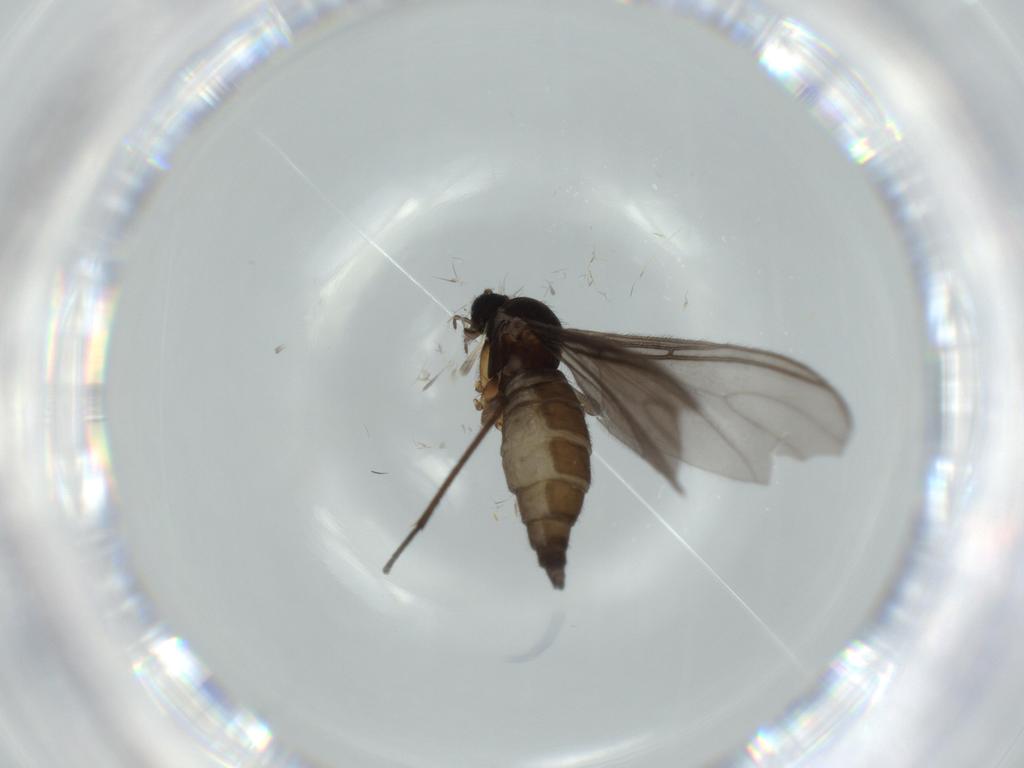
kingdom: Animalia
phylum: Arthropoda
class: Insecta
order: Diptera
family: Sciaridae
